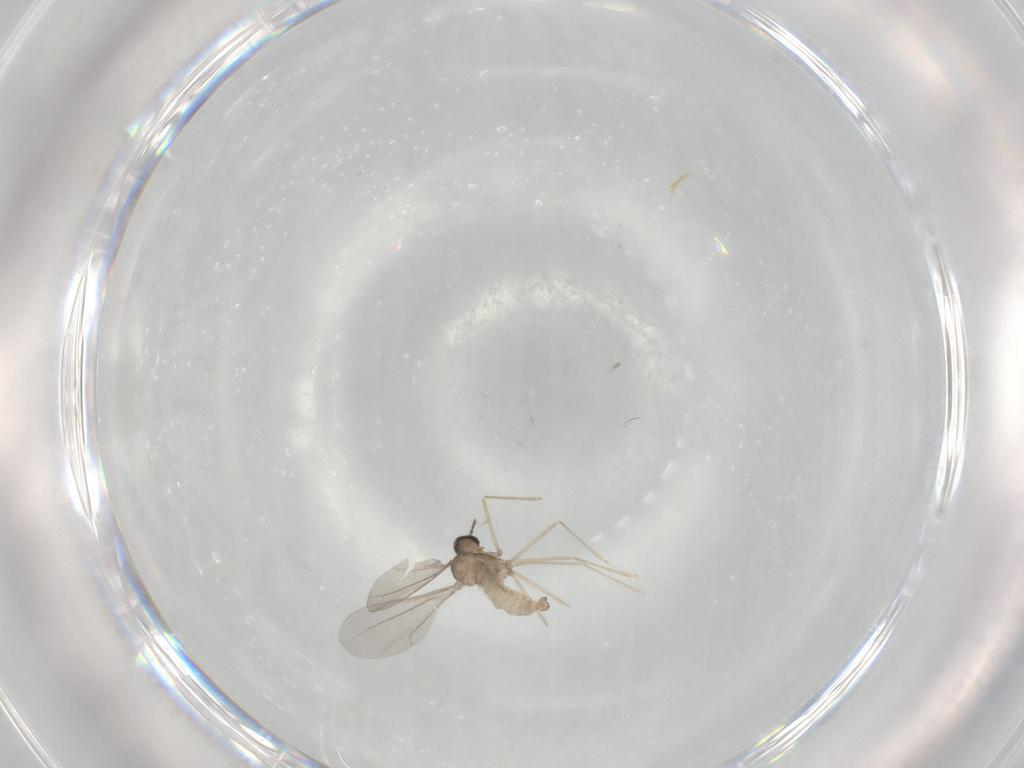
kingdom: Animalia
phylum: Arthropoda
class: Insecta
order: Diptera
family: Cecidomyiidae
